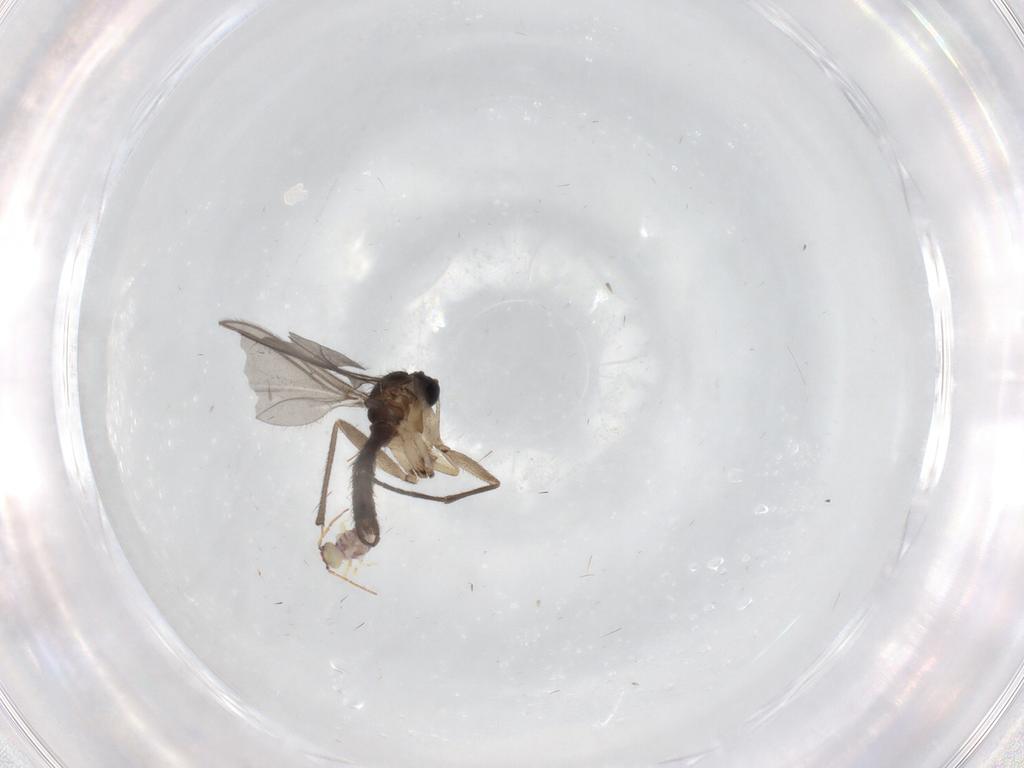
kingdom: Animalia
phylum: Arthropoda
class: Insecta
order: Diptera
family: Sciaridae
